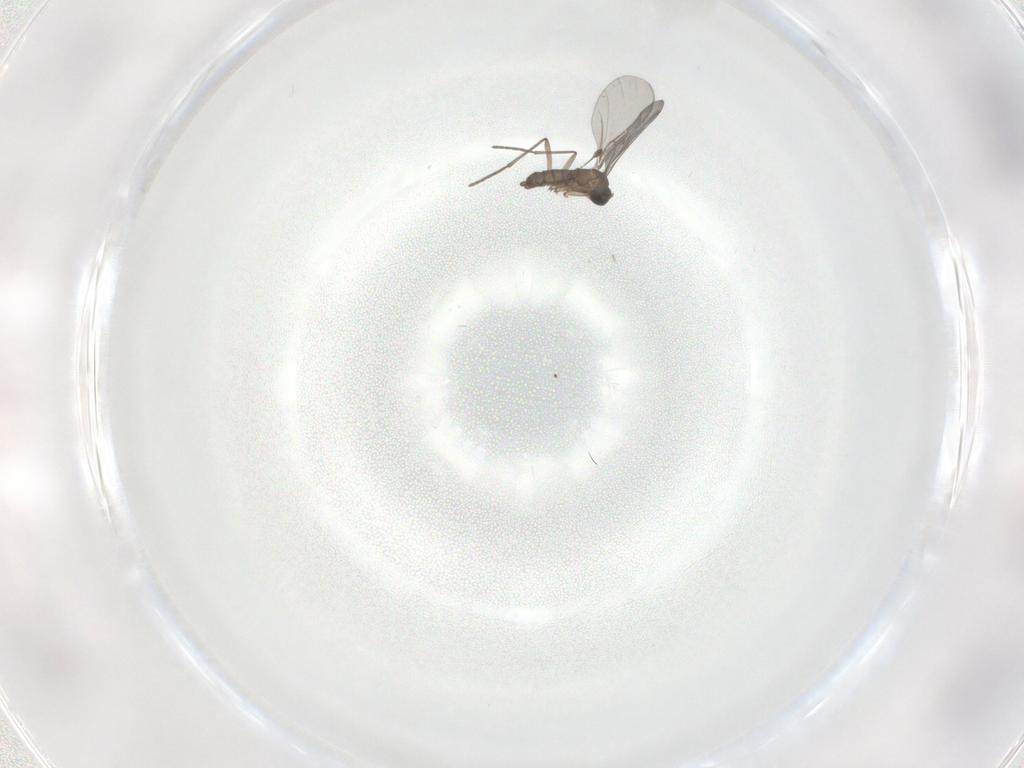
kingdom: Animalia
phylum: Arthropoda
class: Insecta
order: Diptera
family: Sciaridae
